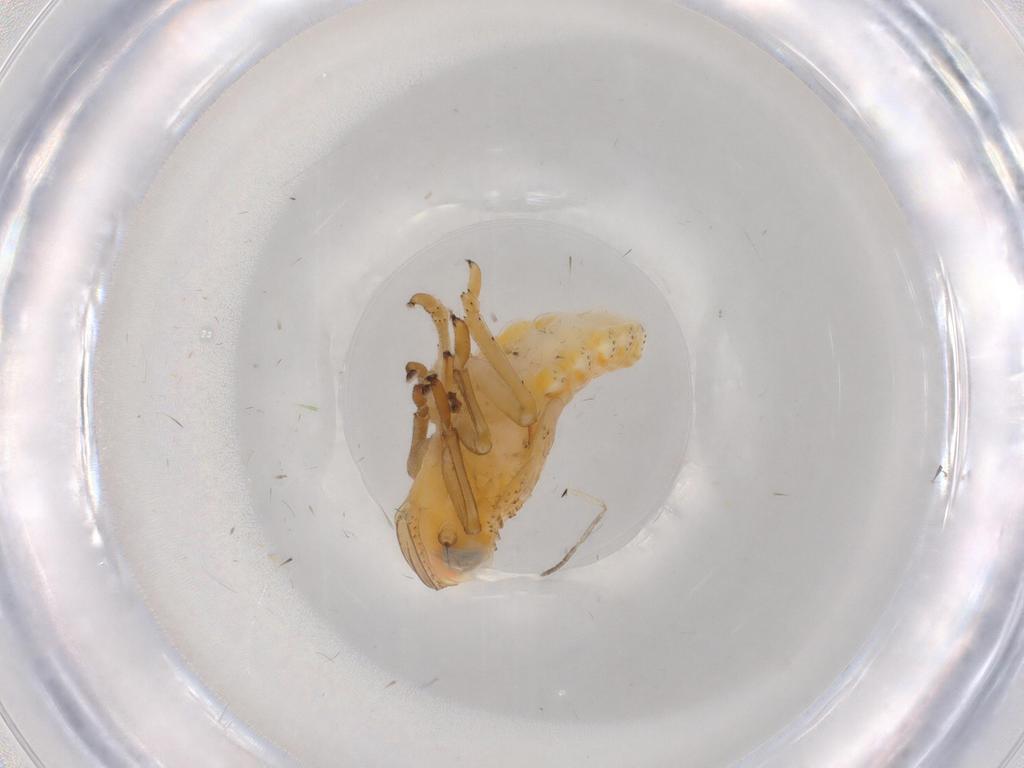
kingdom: Animalia
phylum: Arthropoda
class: Insecta
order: Hemiptera
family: Issidae
